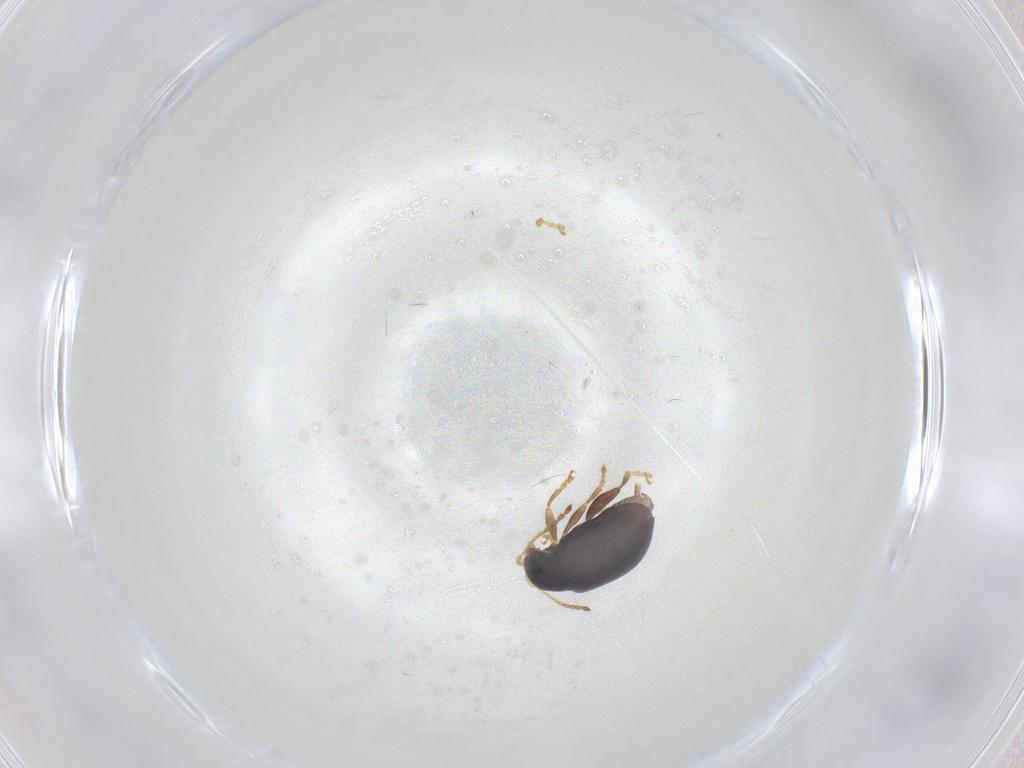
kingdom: Animalia
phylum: Arthropoda
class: Insecta
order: Coleoptera
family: Chrysomelidae
